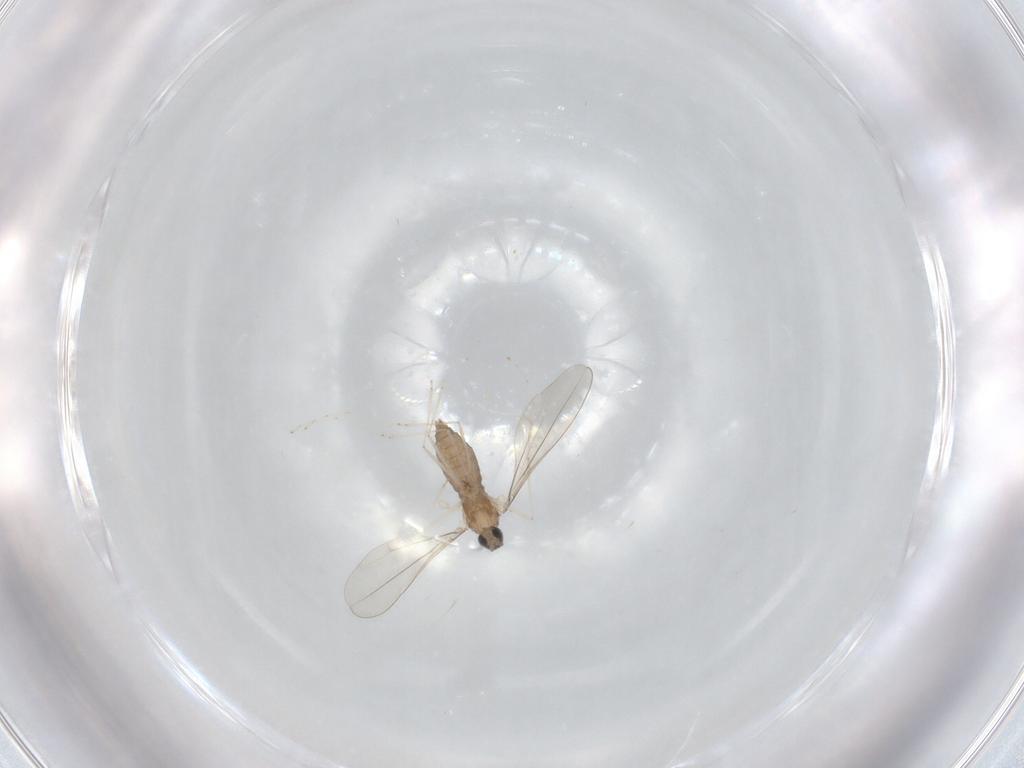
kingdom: Animalia
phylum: Arthropoda
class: Insecta
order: Diptera
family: Cecidomyiidae
